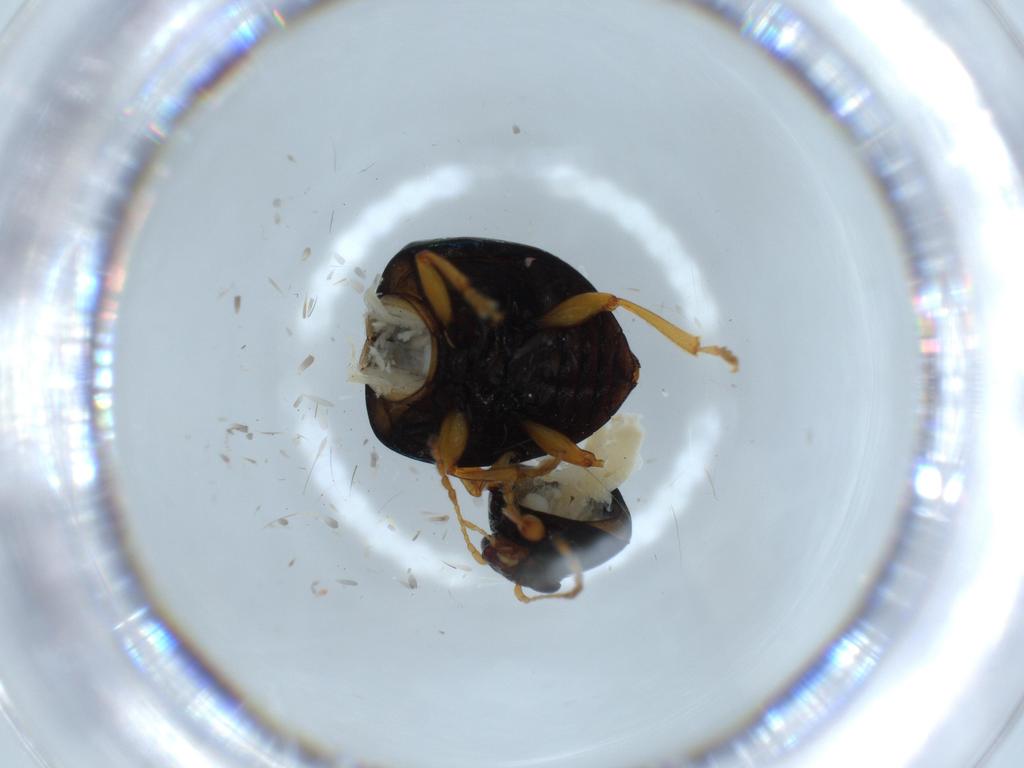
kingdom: Animalia
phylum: Arthropoda
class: Insecta
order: Coleoptera
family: Chrysomelidae
